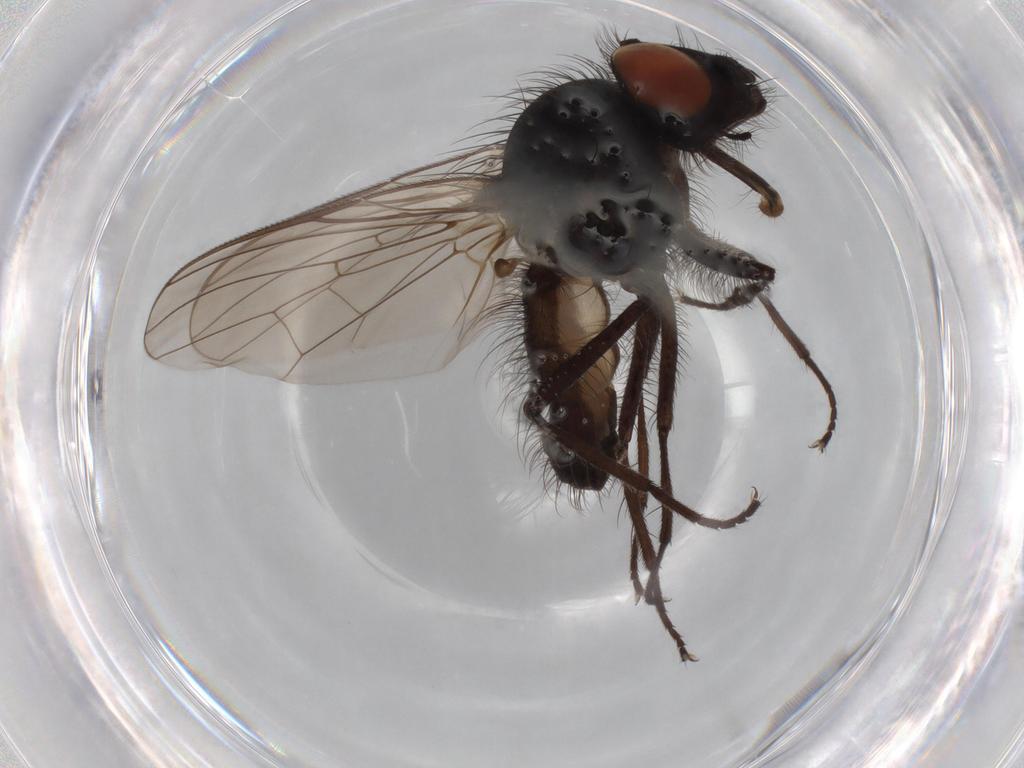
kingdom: Animalia
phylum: Arthropoda
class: Insecta
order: Diptera
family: Anthomyiidae
